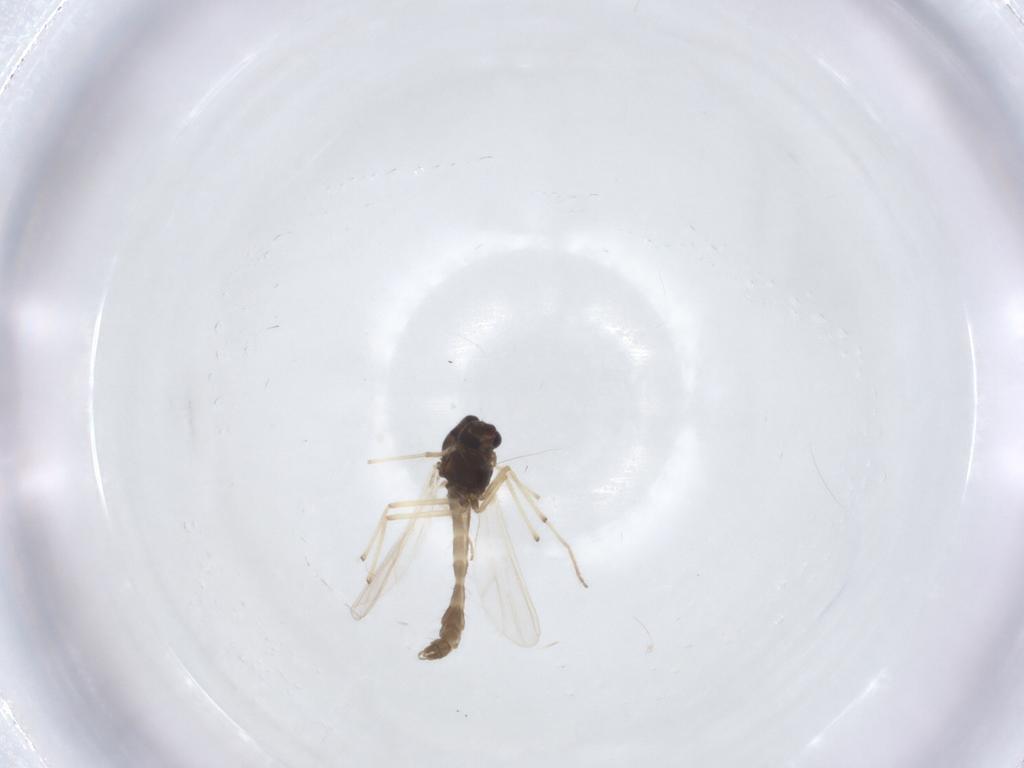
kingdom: Animalia
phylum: Arthropoda
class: Insecta
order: Diptera
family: Chironomidae
